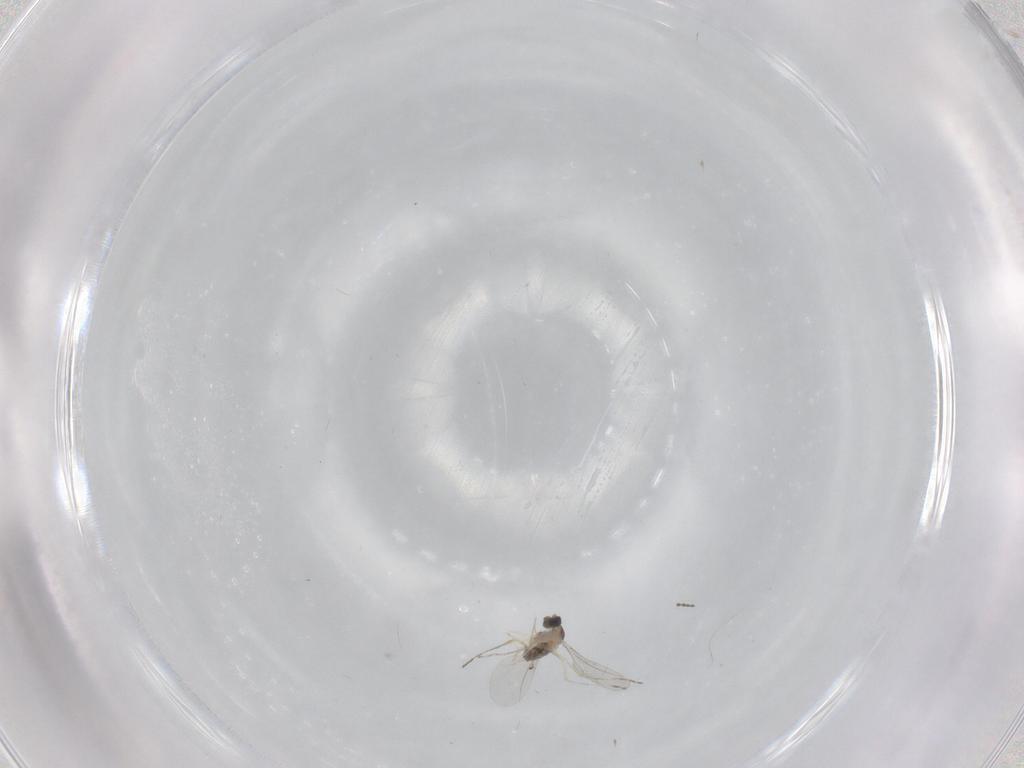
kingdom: Animalia
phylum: Arthropoda
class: Insecta
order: Diptera
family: Cecidomyiidae
